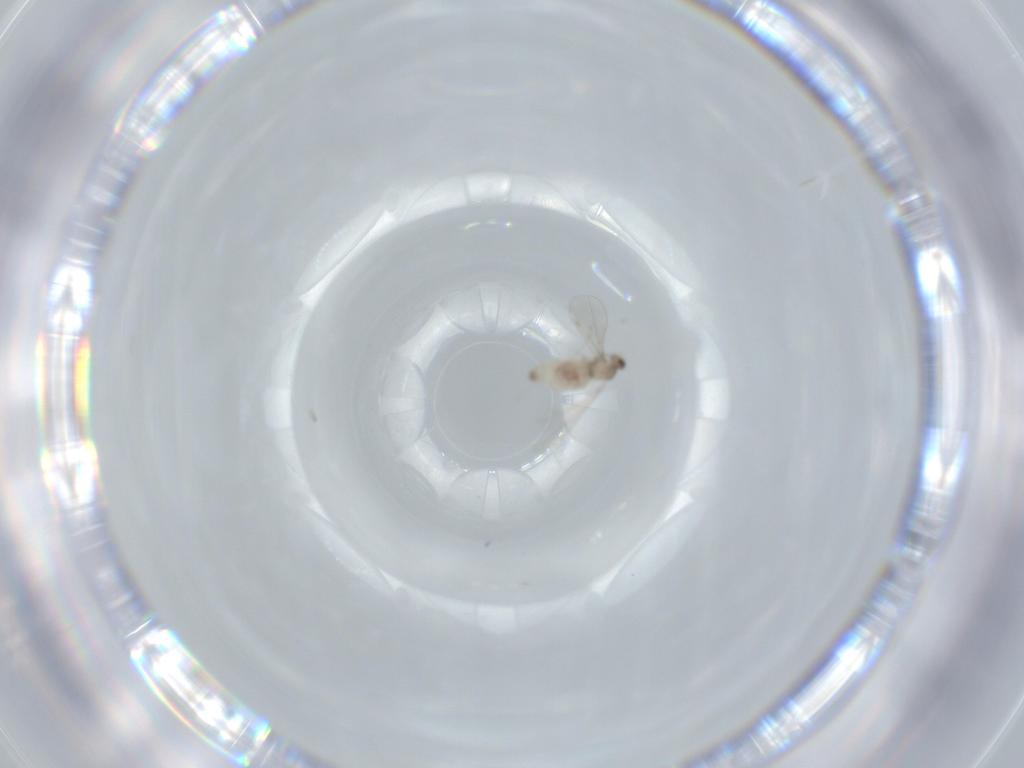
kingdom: Animalia
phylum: Arthropoda
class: Insecta
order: Diptera
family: Cecidomyiidae
